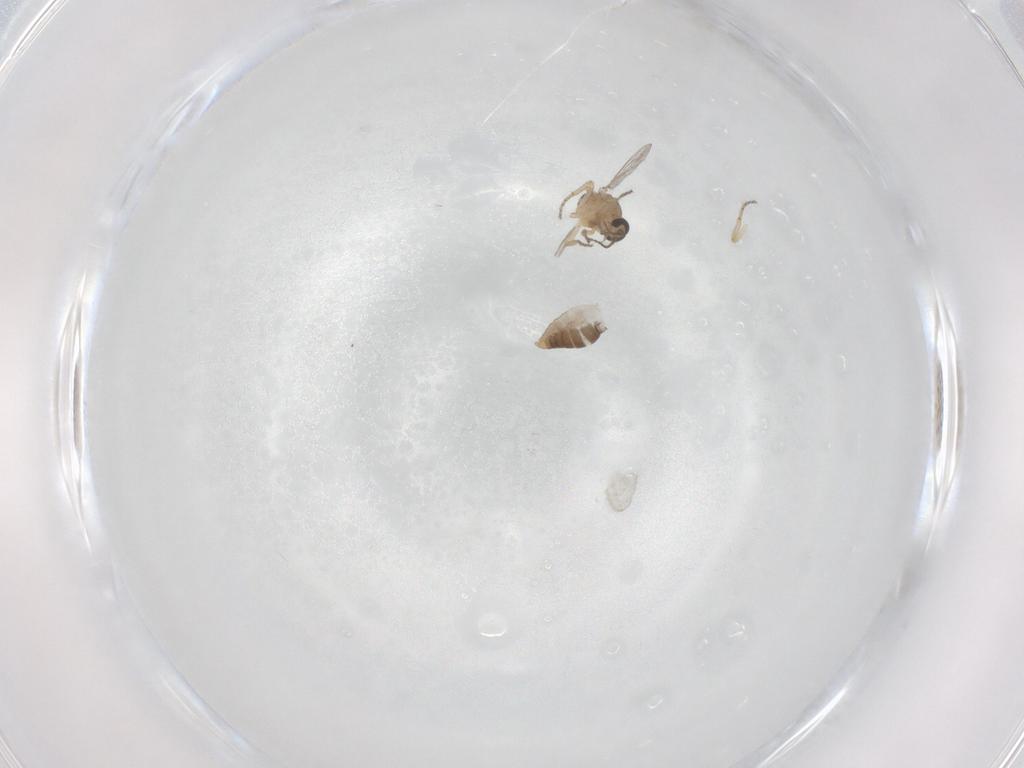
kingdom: Animalia
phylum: Arthropoda
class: Insecta
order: Diptera
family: Ceratopogonidae
